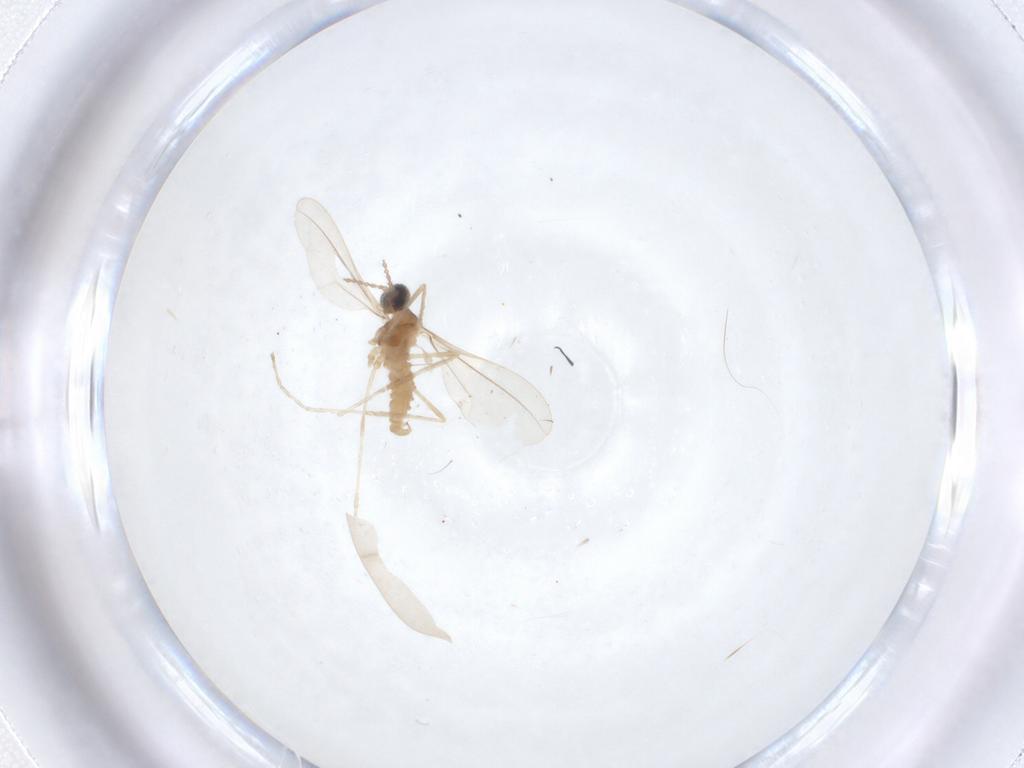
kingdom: Animalia
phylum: Arthropoda
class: Insecta
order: Diptera
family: Cecidomyiidae
